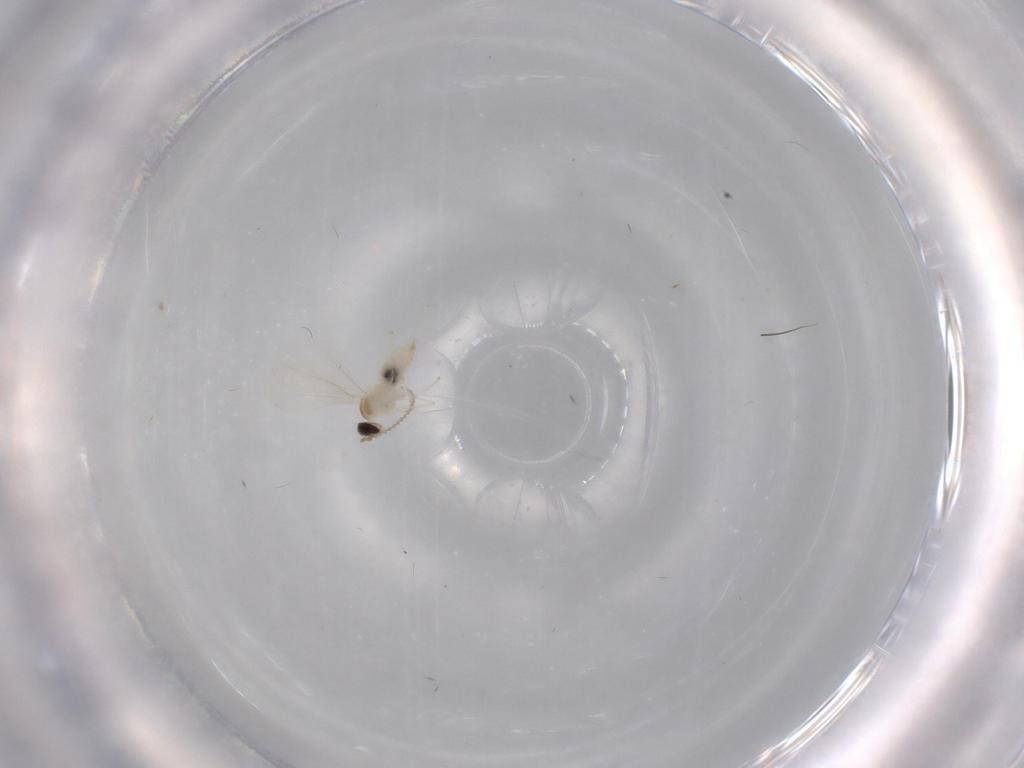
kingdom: Animalia
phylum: Arthropoda
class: Insecta
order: Diptera
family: Cecidomyiidae
